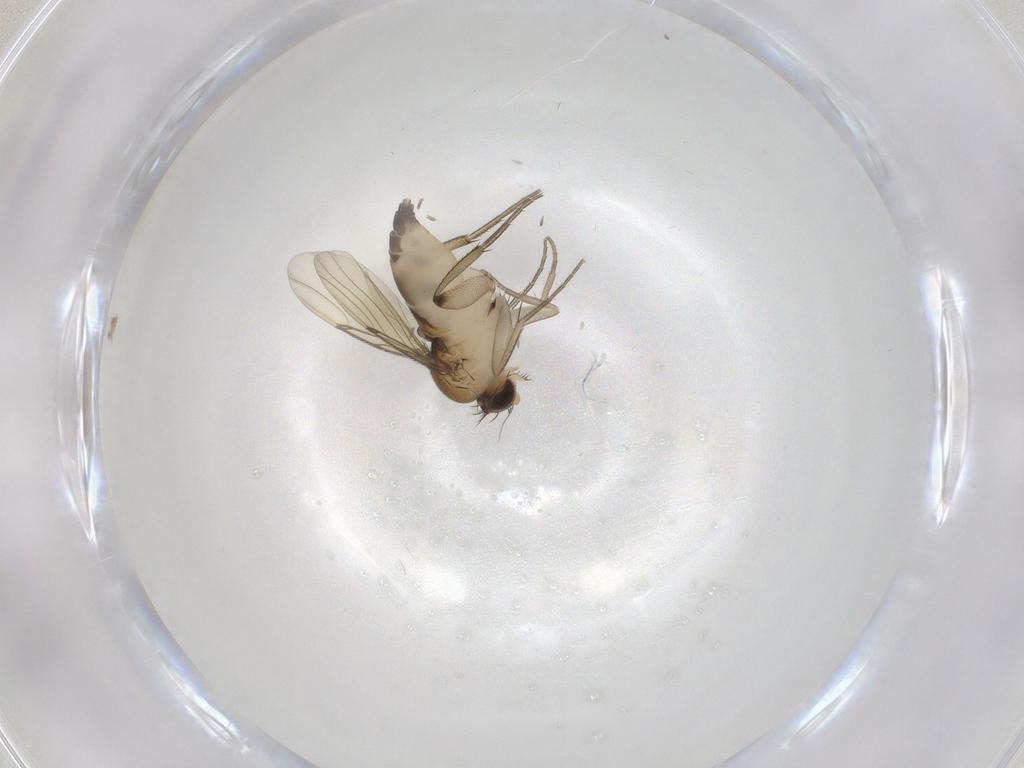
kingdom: Animalia
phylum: Arthropoda
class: Insecta
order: Diptera
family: Phoridae
